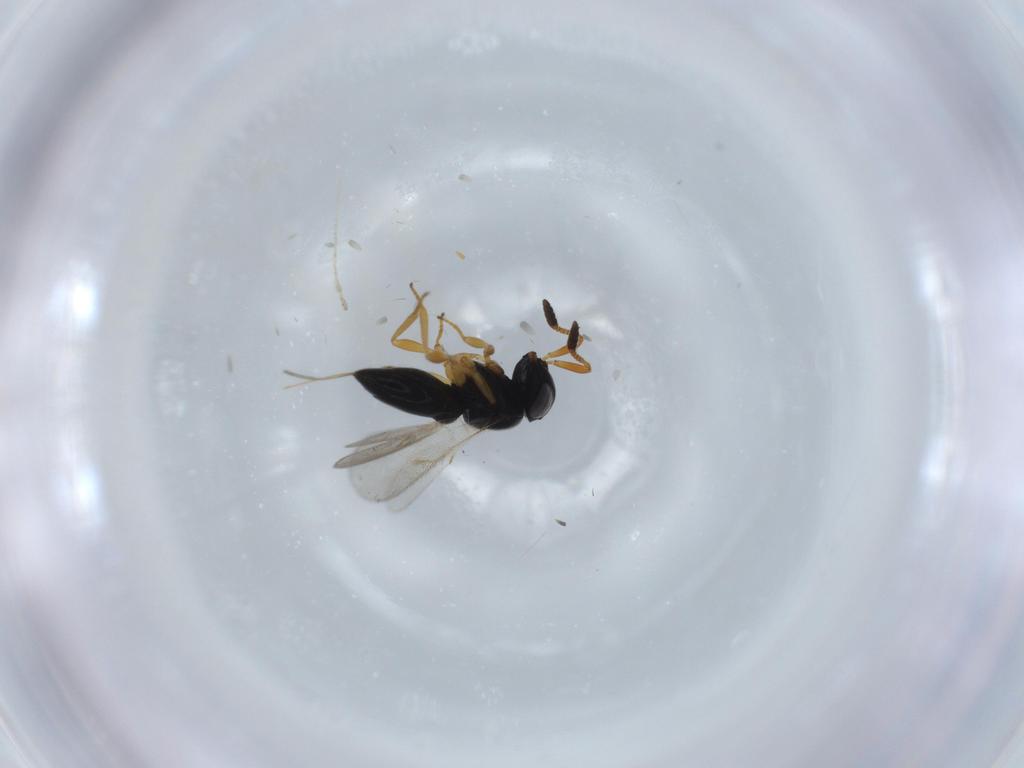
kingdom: Animalia
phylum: Arthropoda
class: Insecta
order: Hymenoptera
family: Scelionidae
